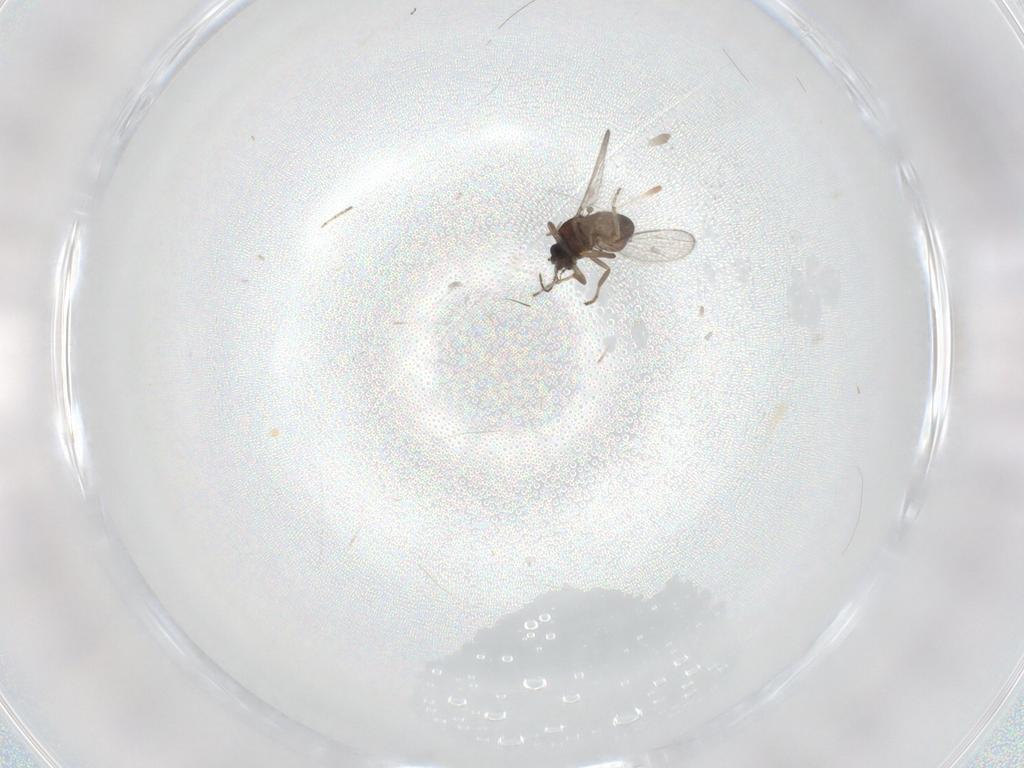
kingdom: Animalia
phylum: Arthropoda
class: Insecta
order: Diptera
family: Ceratopogonidae
